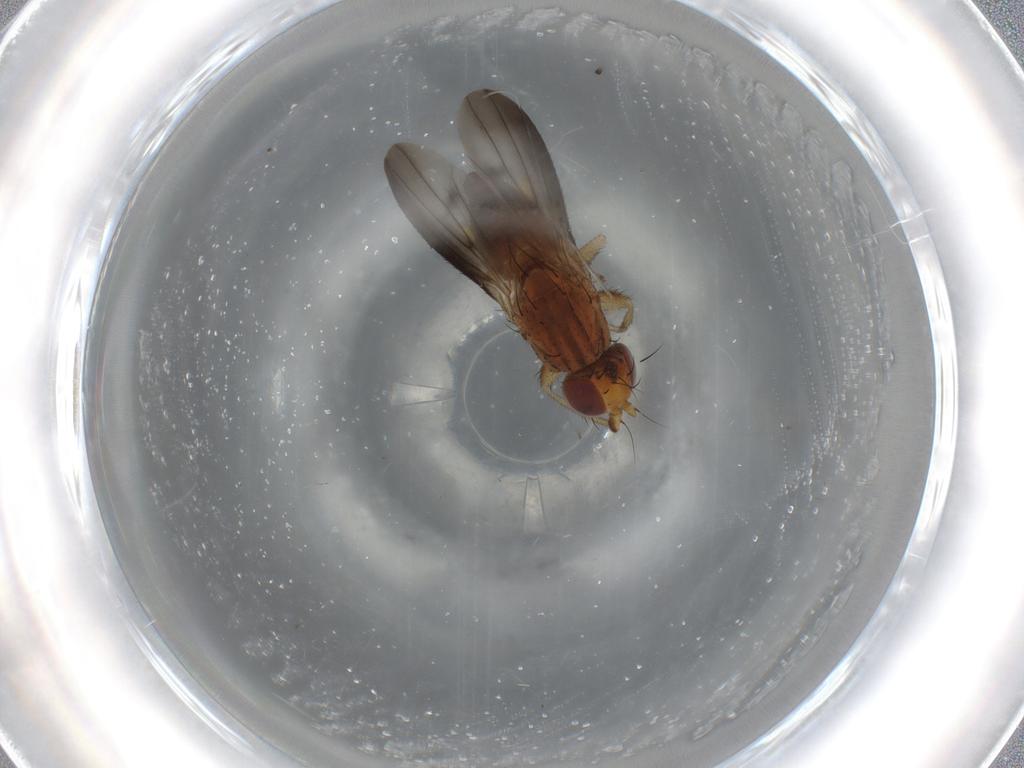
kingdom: Animalia
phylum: Arthropoda
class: Insecta
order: Diptera
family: Heleomyzidae
